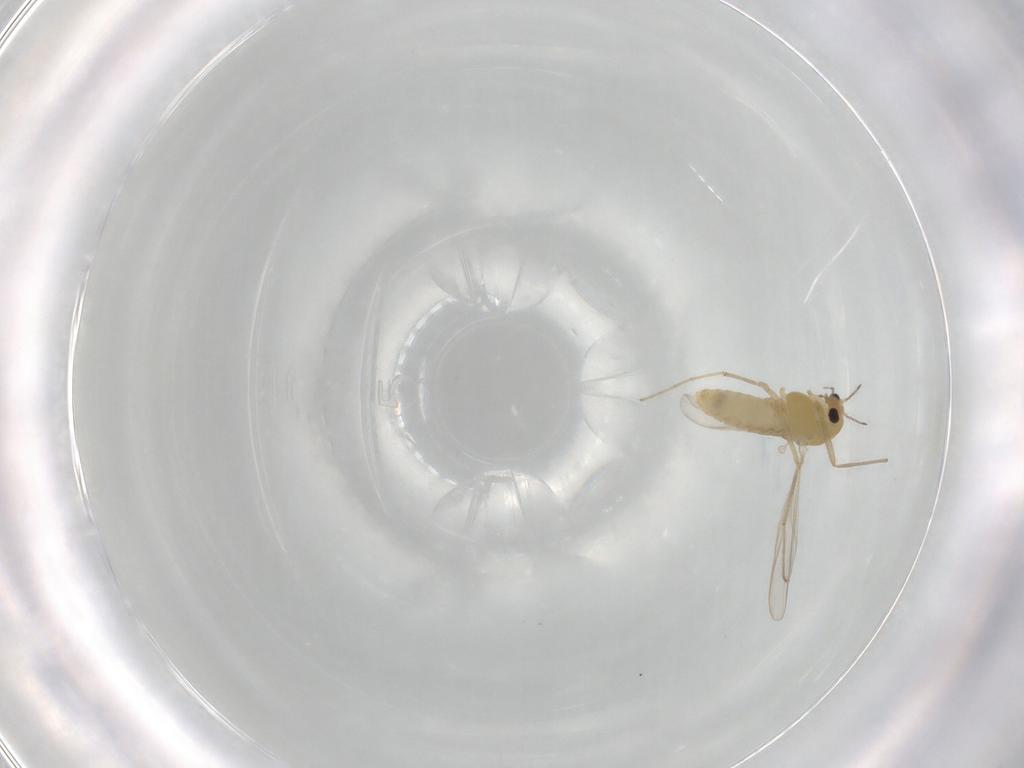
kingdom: Animalia
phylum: Arthropoda
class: Insecta
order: Diptera
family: Chironomidae
